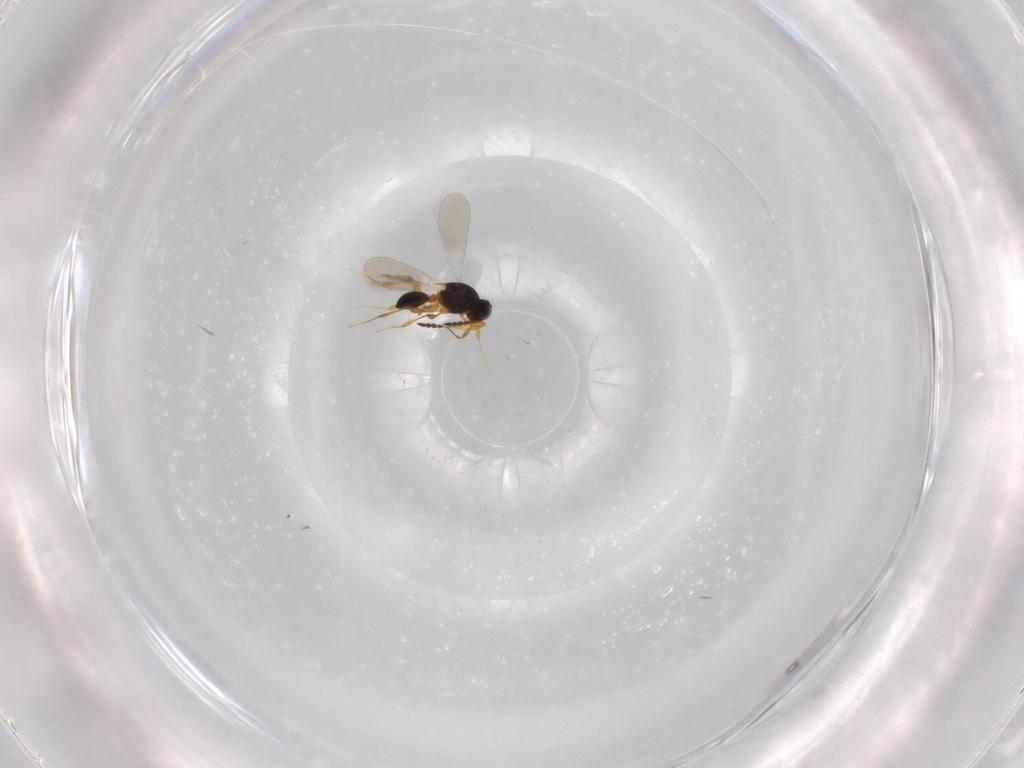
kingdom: Animalia
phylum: Arthropoda
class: Insecta
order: Hymenoptera
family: Platygastridae
